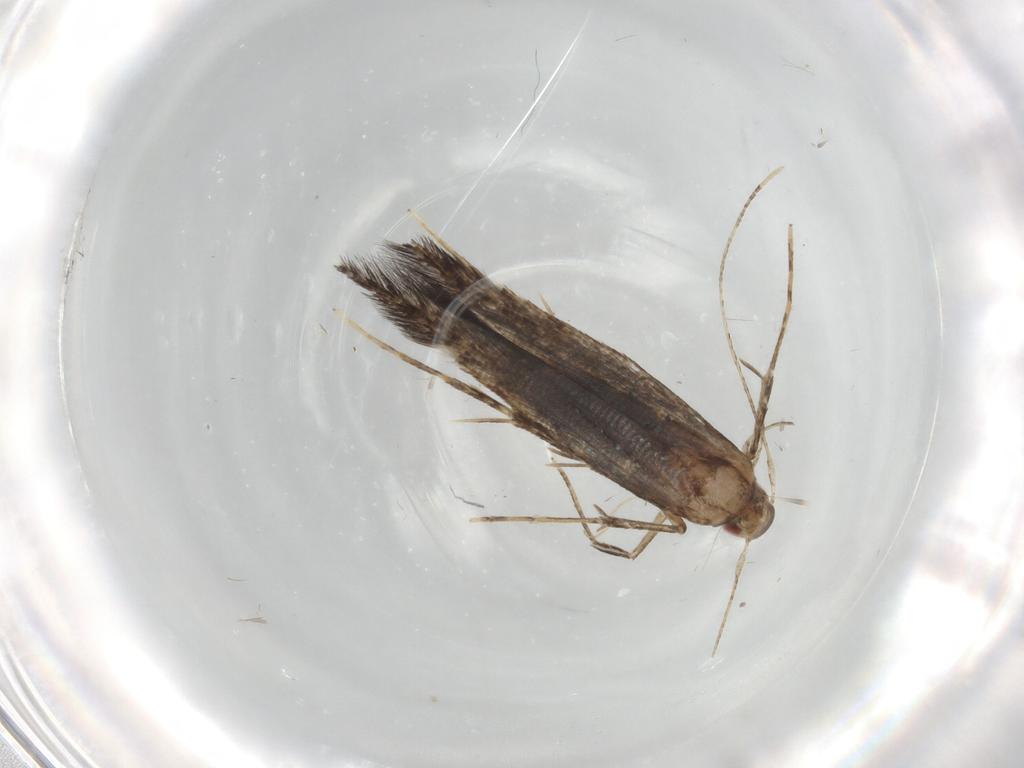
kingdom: Animalia
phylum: Arthropoda
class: Insecta
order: Lepidoptera
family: Cosmopterigidae
